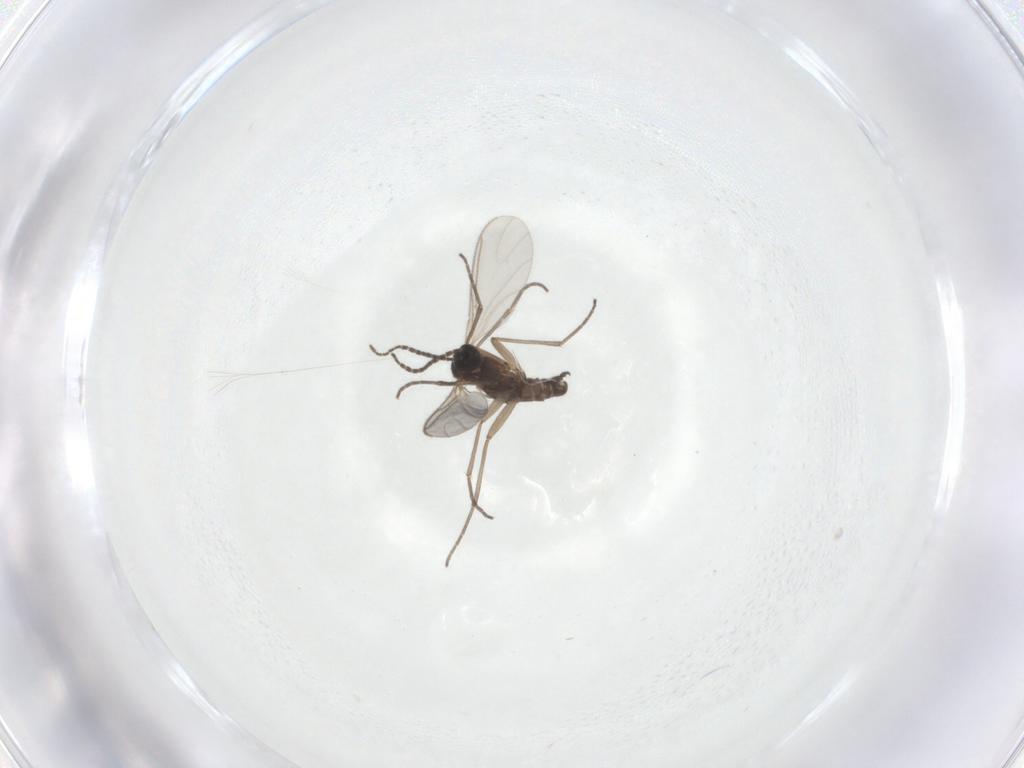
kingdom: Animalia
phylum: Arthropoda
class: Insecta
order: Diptera
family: Sciaridae
